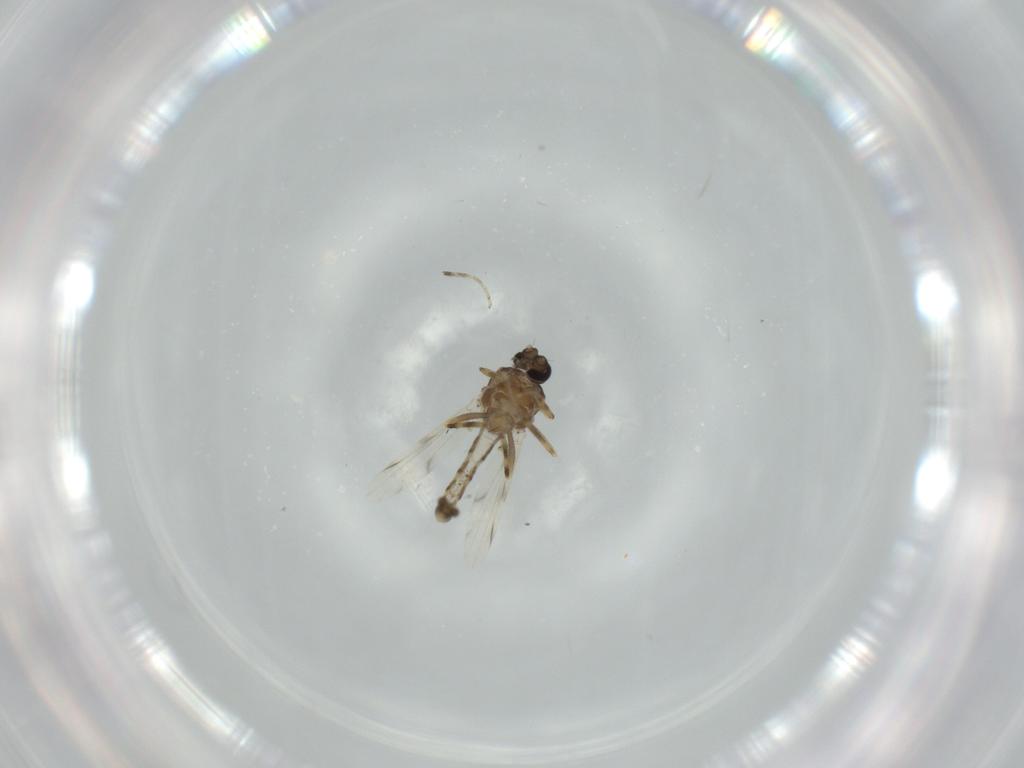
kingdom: Animalia
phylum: Arthropoda
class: Insecta
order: Diptera
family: Ceratopogonidae
